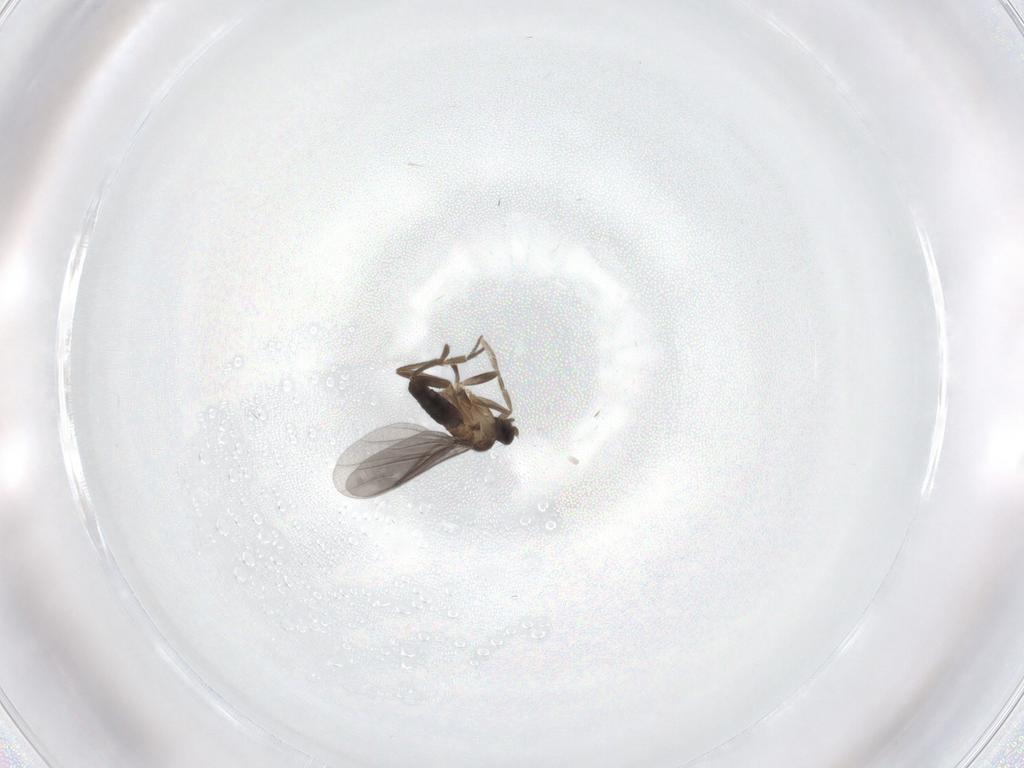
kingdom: Animalia
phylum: Arthropoda
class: Insecta
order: Diptera
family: Cecidomyiidae
